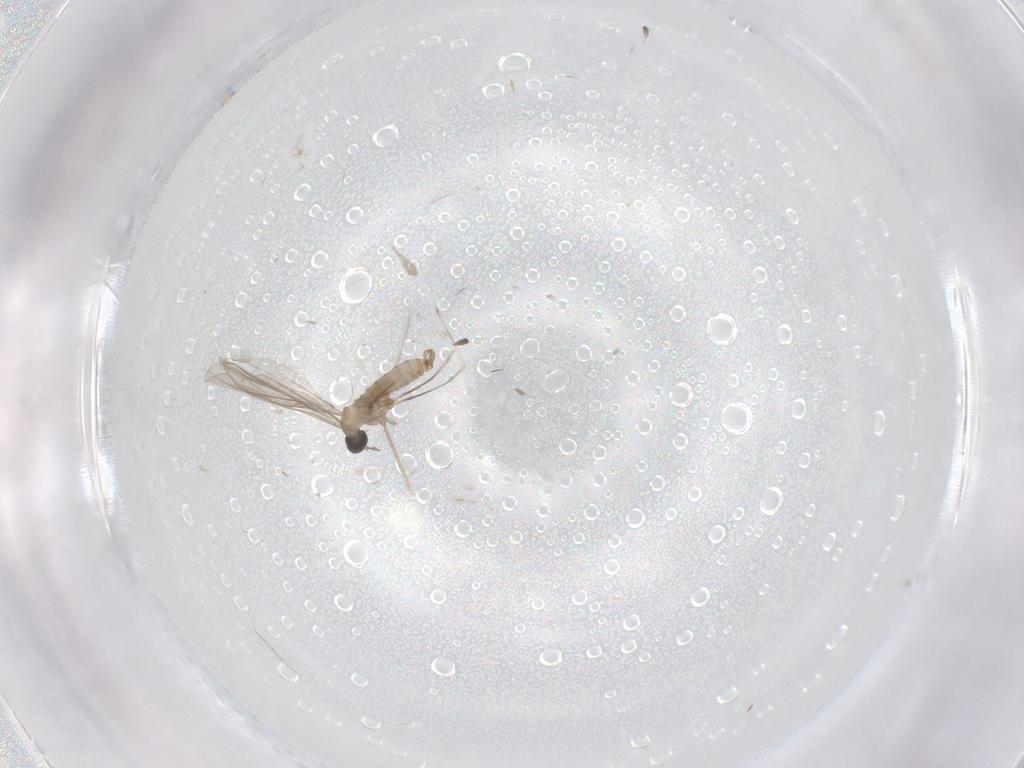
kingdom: Animalia
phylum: Arthropoda
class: Insecta
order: Diptera
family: Cecidomyiidae
